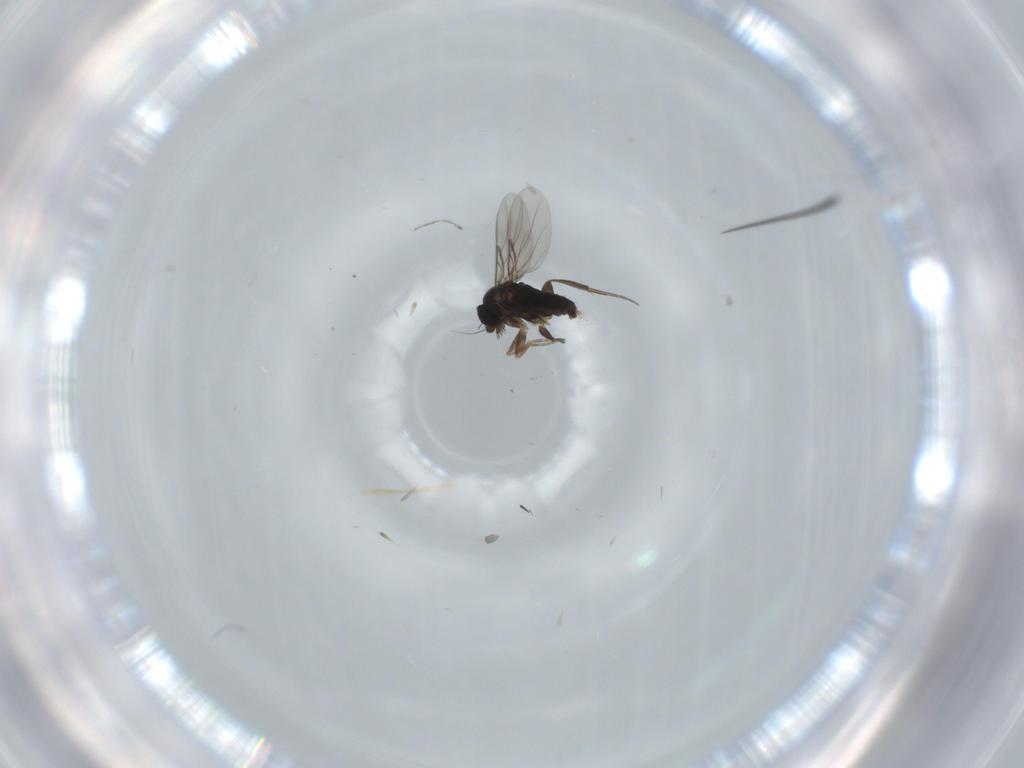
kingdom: Animalia
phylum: Arthropoda
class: Insecta
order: Diptera
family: Phoridae
